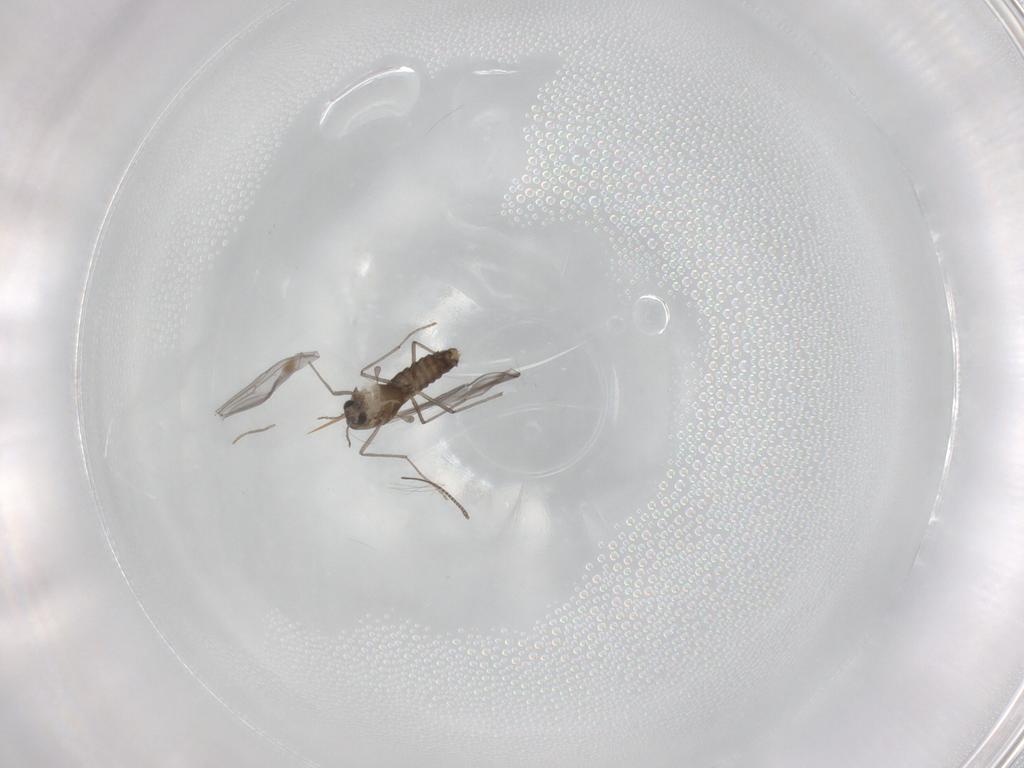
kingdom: Animalia
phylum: Arthropoda
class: Insecta
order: Diptera
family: Chironomidae
